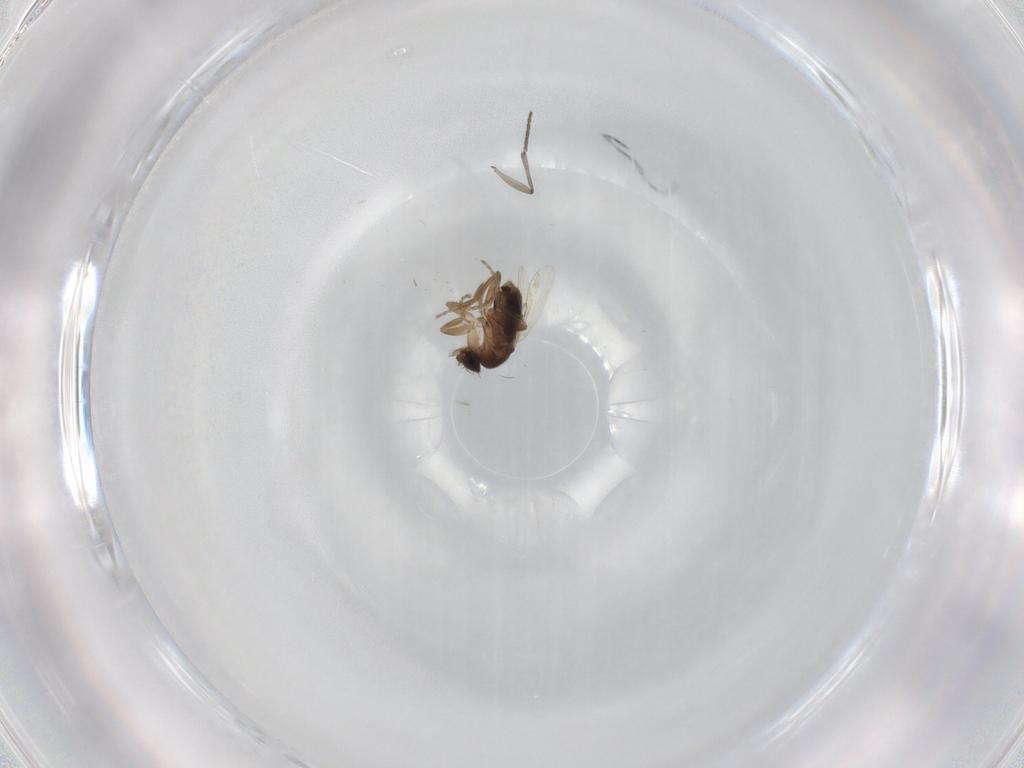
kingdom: Animalia
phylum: Arthropoda
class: Insecta
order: Diptera
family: Sciaridae
